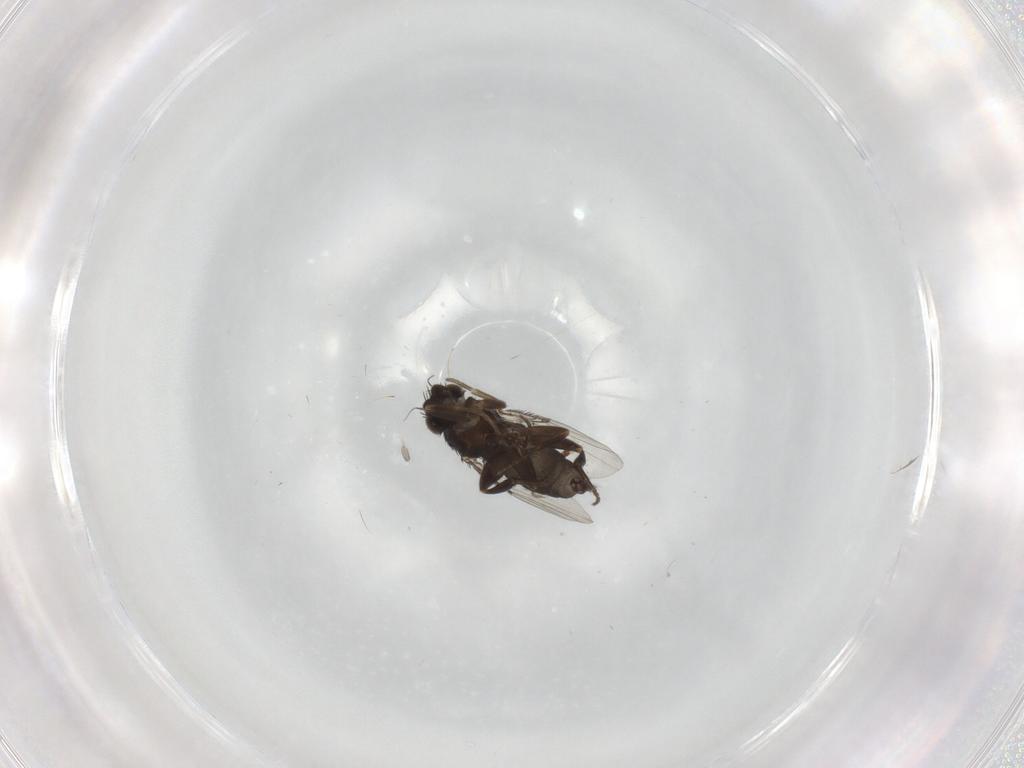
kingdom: Animalia
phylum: Arthropoda
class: Insecta
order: Diptera
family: Phoridae
